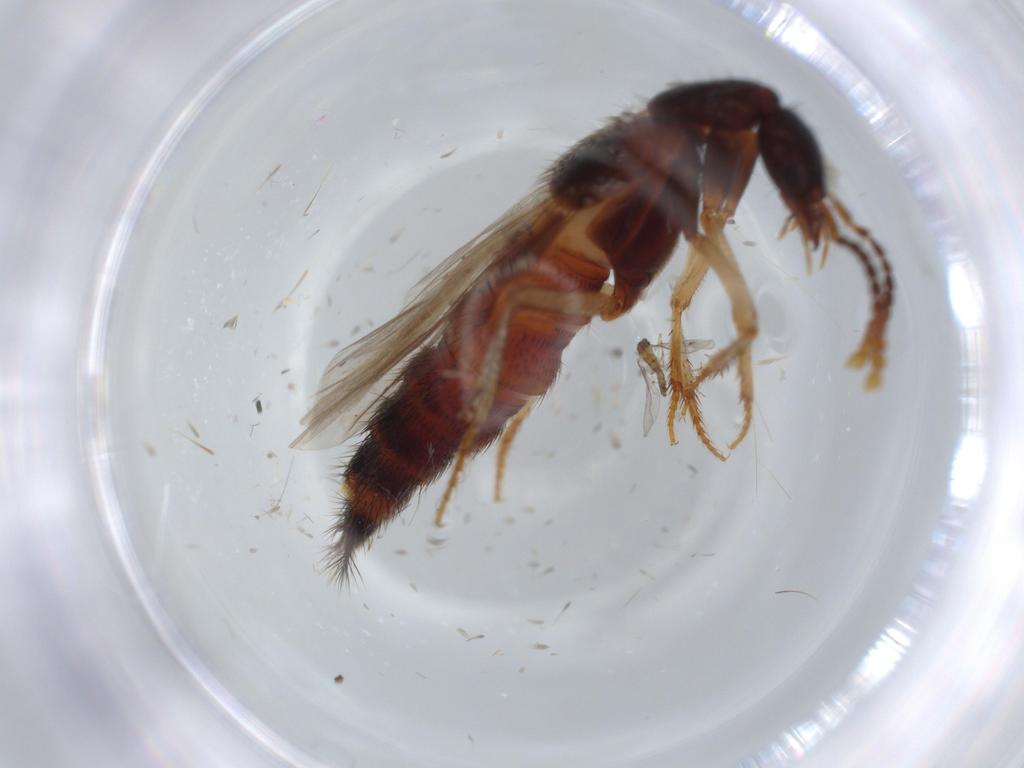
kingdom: Animalia
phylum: Arthropoda
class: Insecta
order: Coleoptera
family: Staphylinidae
